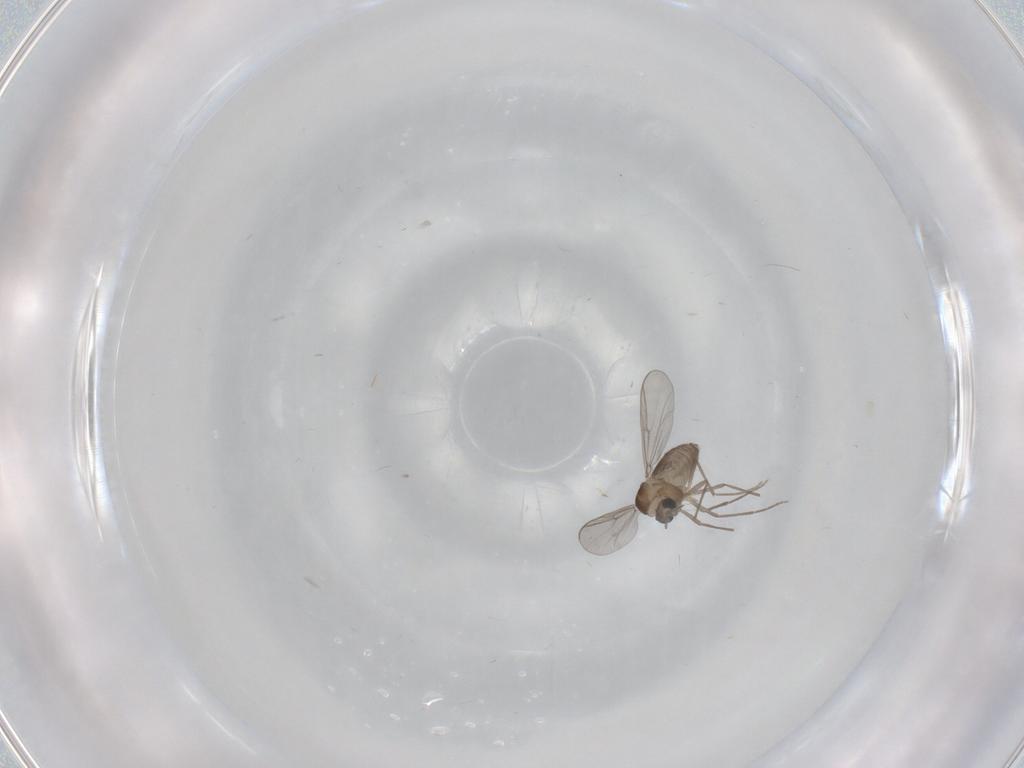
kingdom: Animalia
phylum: Arthropoda
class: Insecta
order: Diptera
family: Chironomidae
